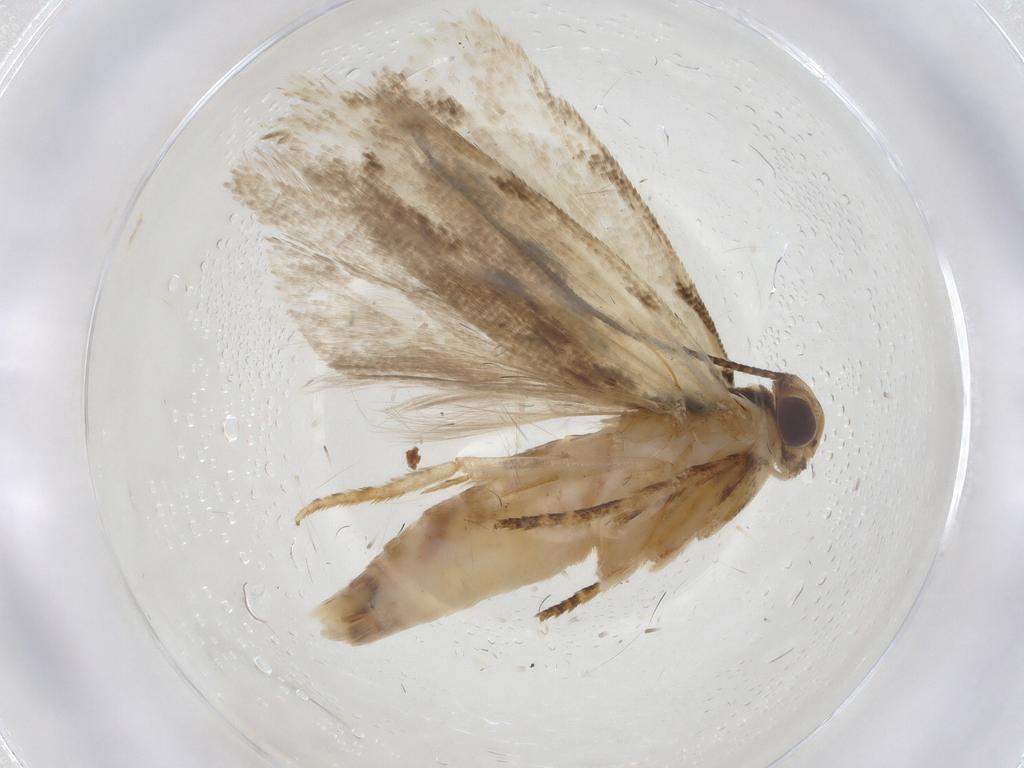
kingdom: Animalia
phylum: Arthropoda
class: Insecta
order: Lepidoptera
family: Gelechiidae
